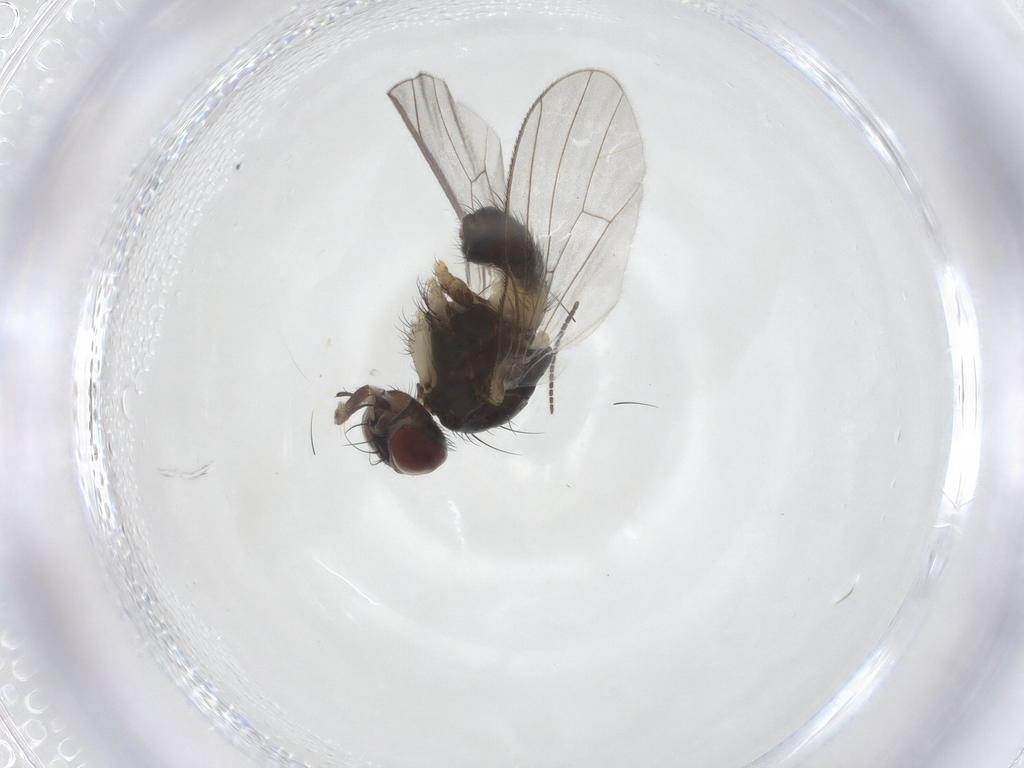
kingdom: Animalia
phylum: Arthropoda
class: Insecta
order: Diptera
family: Muscidae
